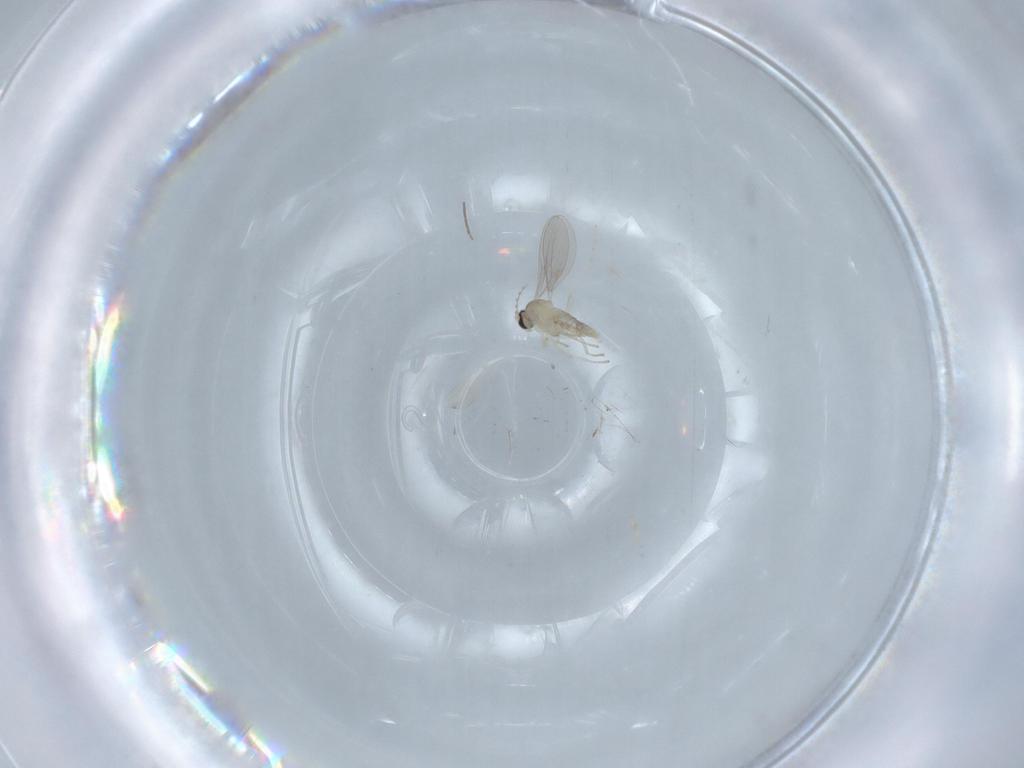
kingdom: Animalia
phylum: Arthropoda
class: Insecta
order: Diptera
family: Cecidomyiidae
